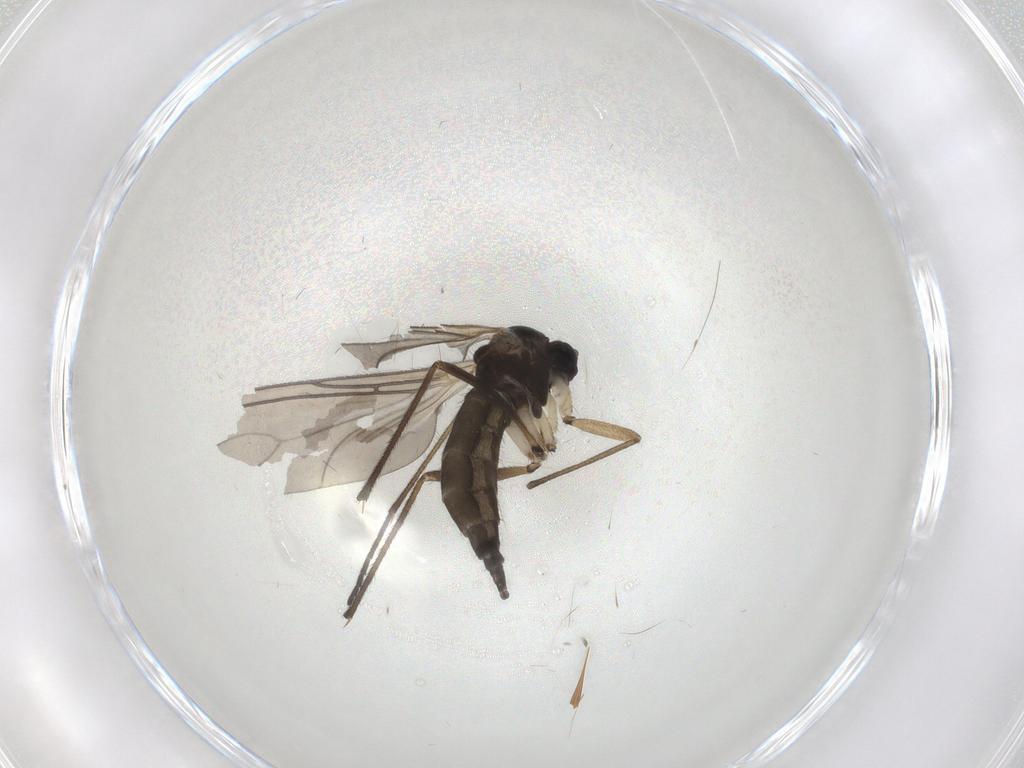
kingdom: Animalia
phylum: Arthropoda
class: Insecta
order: Diptera
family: Sciaridae
